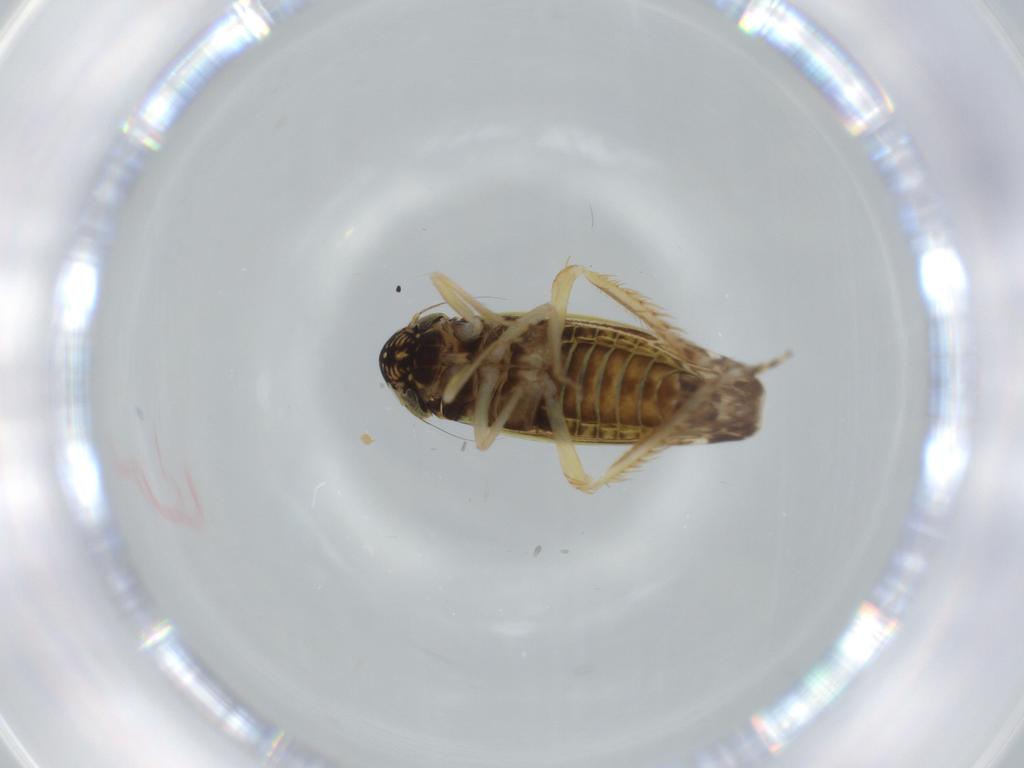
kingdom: Animalia
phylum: Arthropoda
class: Insecta
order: Hemiptera
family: Cicadellidae
